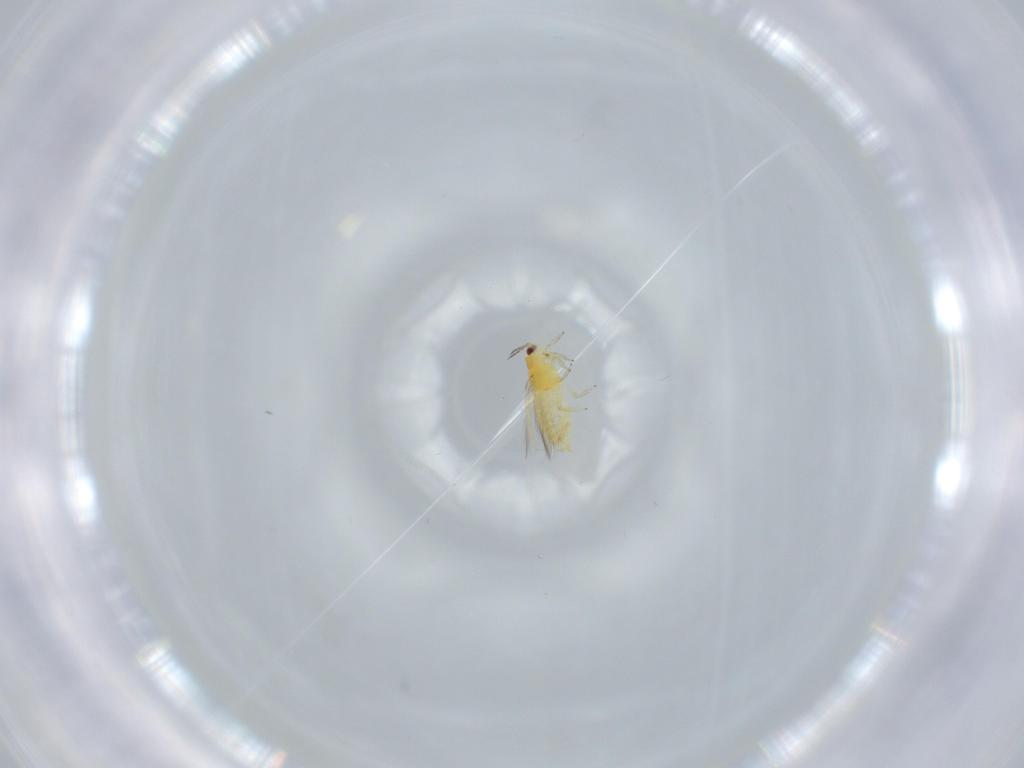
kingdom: Animalia
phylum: Arthropoda
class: Insecta
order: Thysanoptera
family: Thripidae
